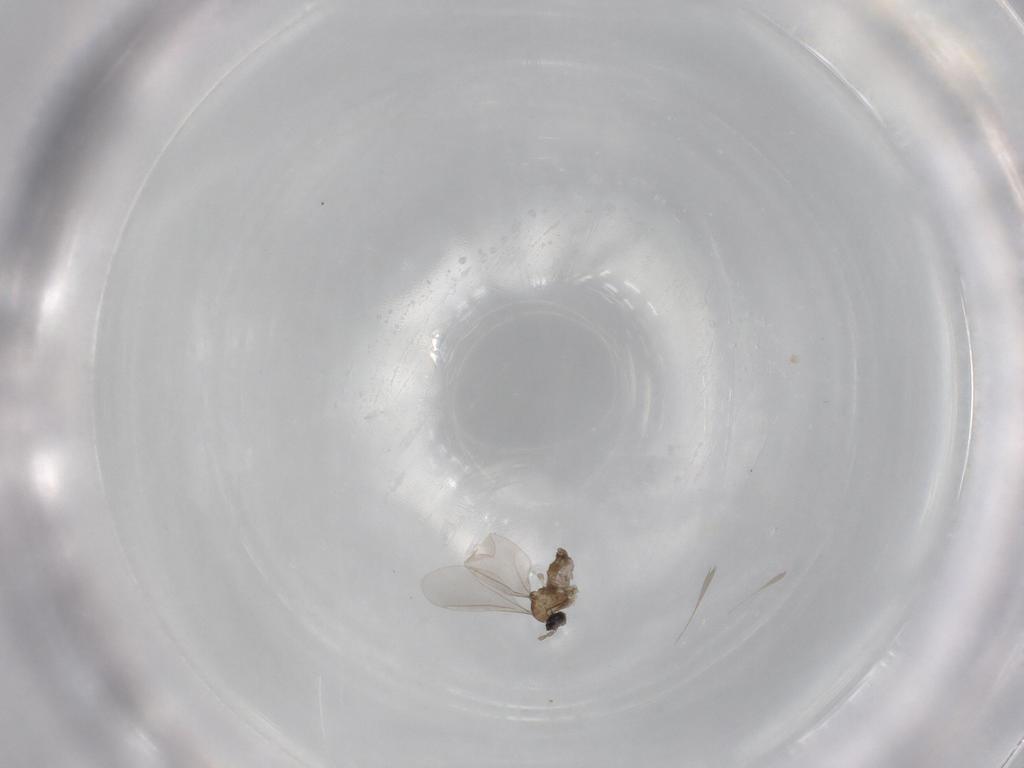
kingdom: Animalia
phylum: Arthropoda
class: Insecta
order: Diptera
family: Cecidomyiidae
